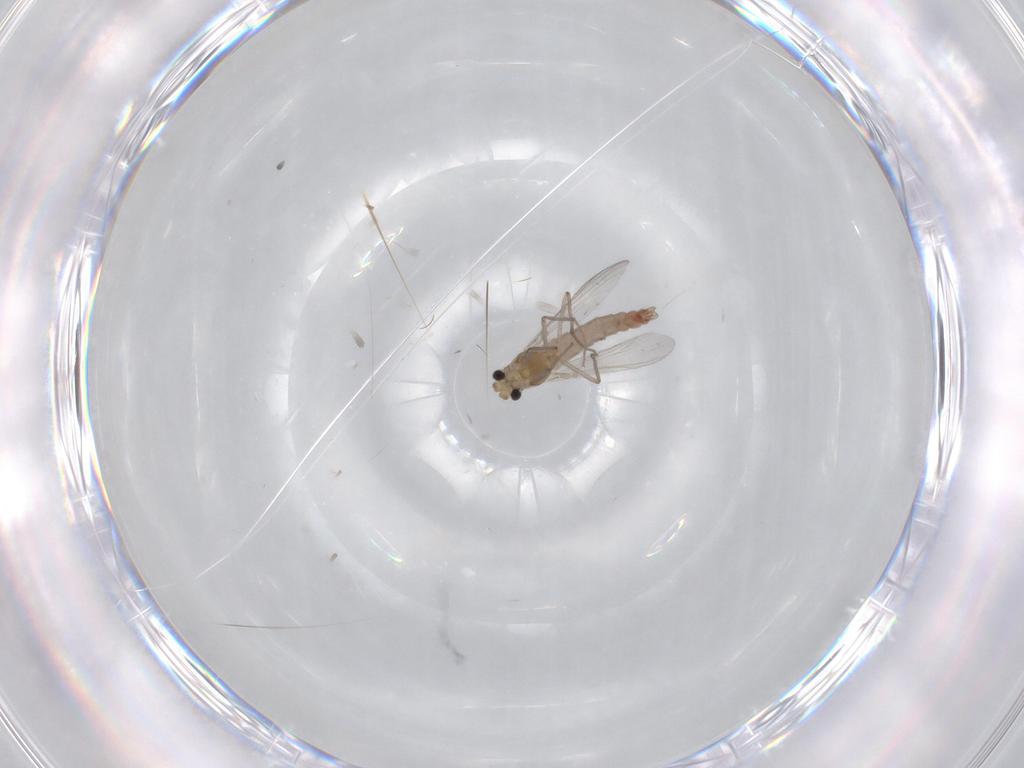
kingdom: Animalia
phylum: Arthropoda
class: Insecta
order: Diptera
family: Chironomidae
